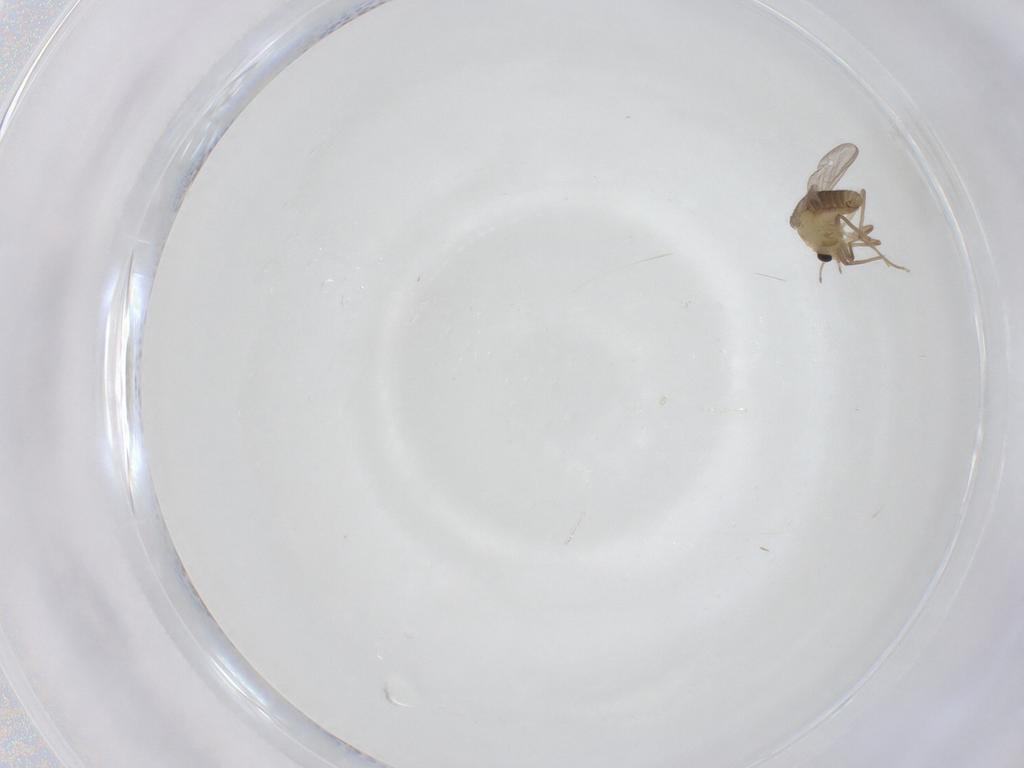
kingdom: Animalia
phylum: Arthropoda
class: Insecta
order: Diptera
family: Chironomidae
